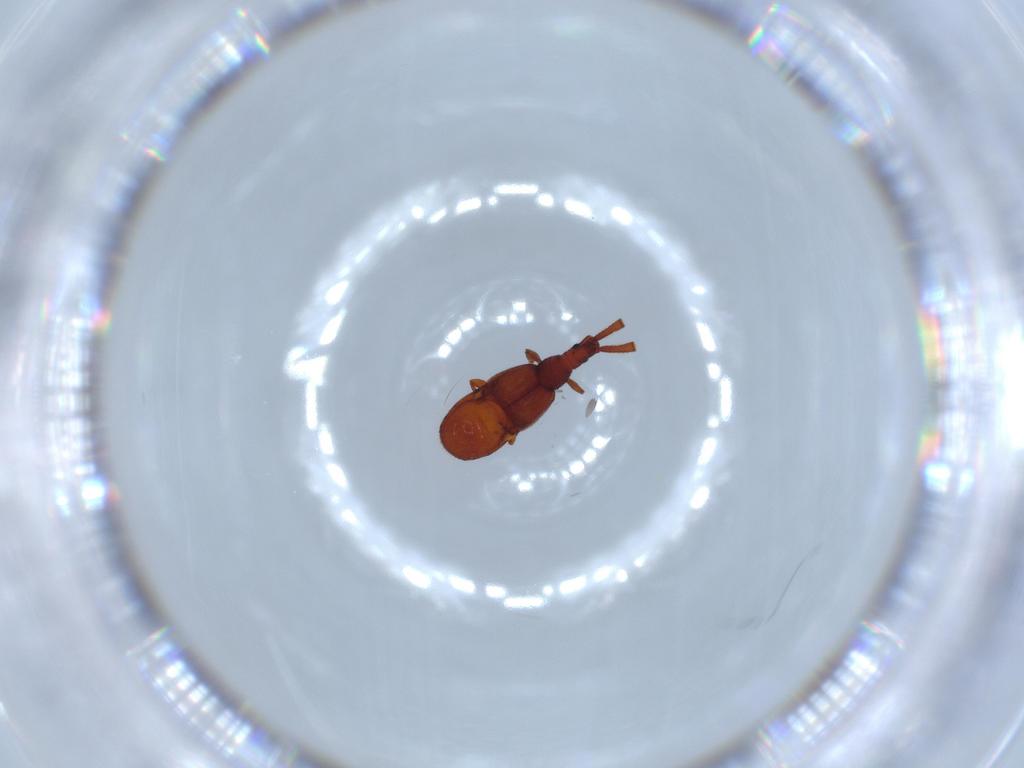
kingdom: Animalia
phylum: Arthropoda
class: Insecta
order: Coleoptera
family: Staphylinidae
